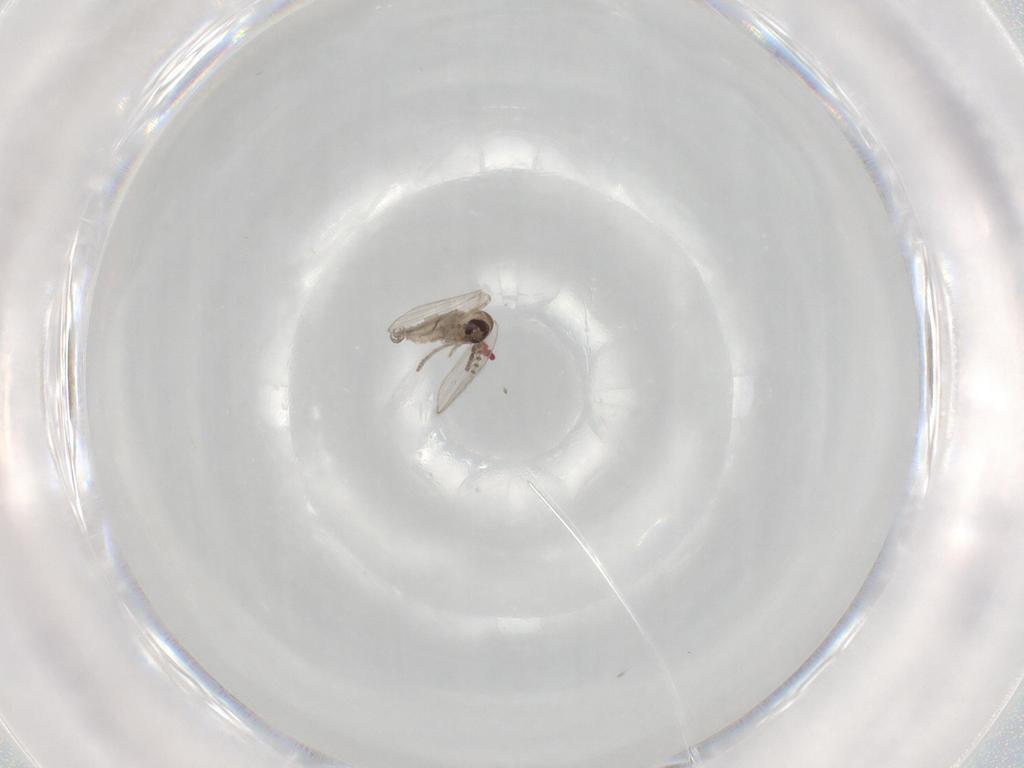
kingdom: Animalia
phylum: Arthropoda
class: Insecta
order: Diptera
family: Psychodidae
